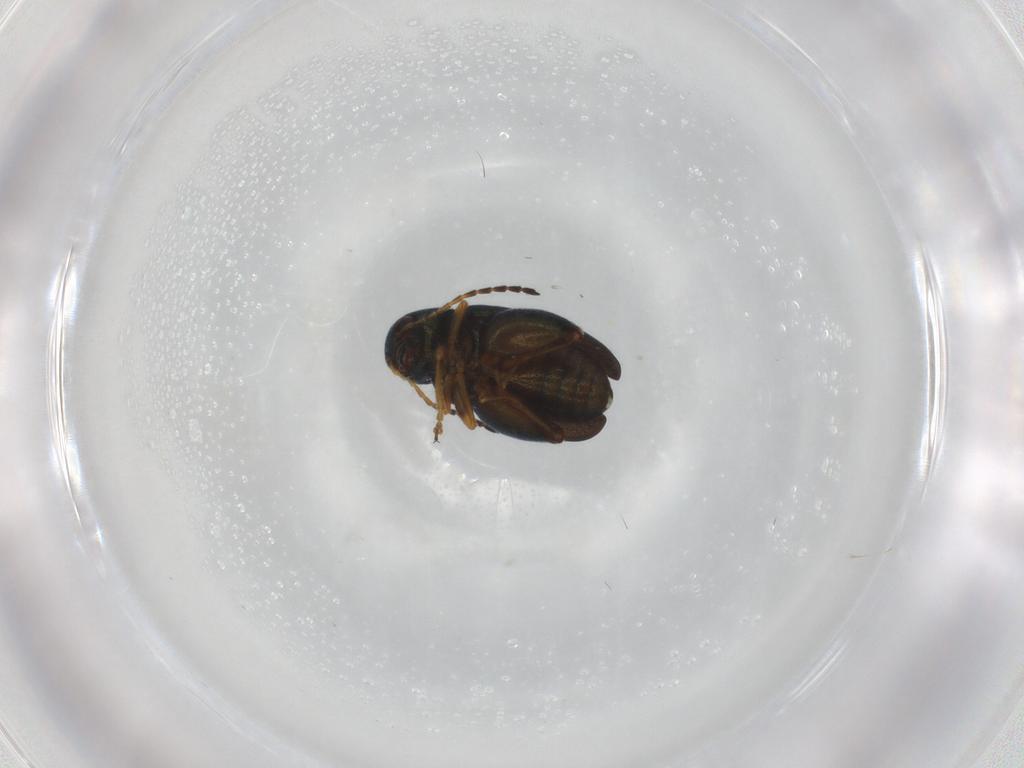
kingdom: Animalia
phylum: Arthropoda
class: Insecta
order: Coleoptera
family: Chrysomelidae
